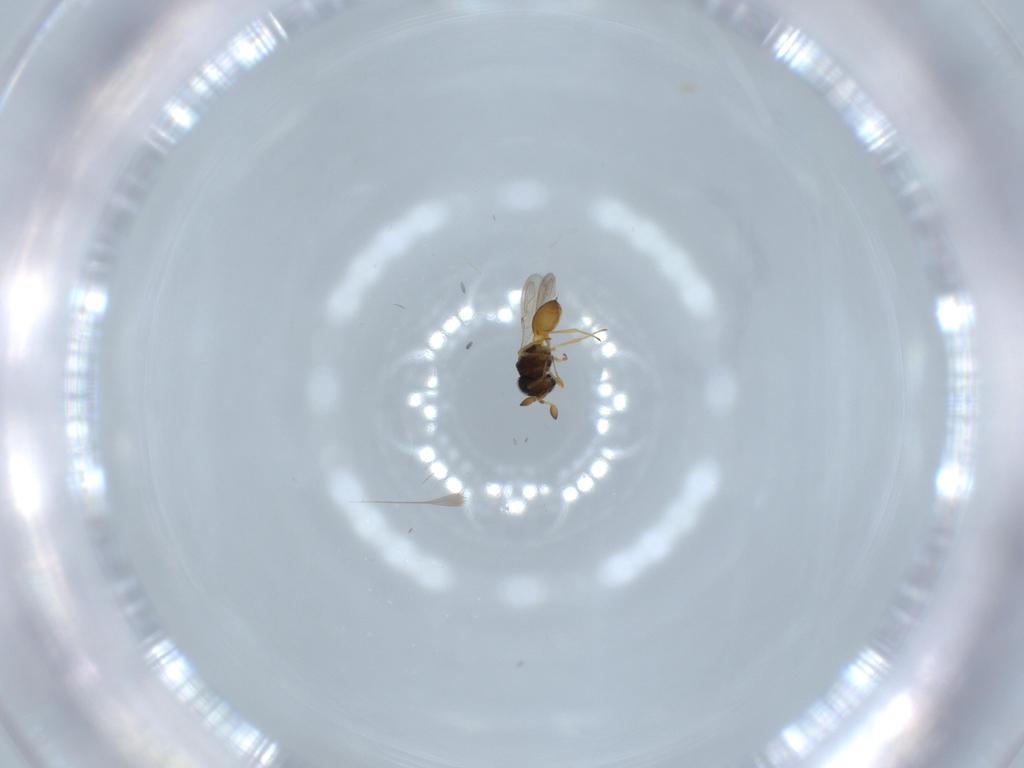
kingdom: Animalia
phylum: Arthropoda
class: Insecta
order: Hymenoptera
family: Scelionidae
